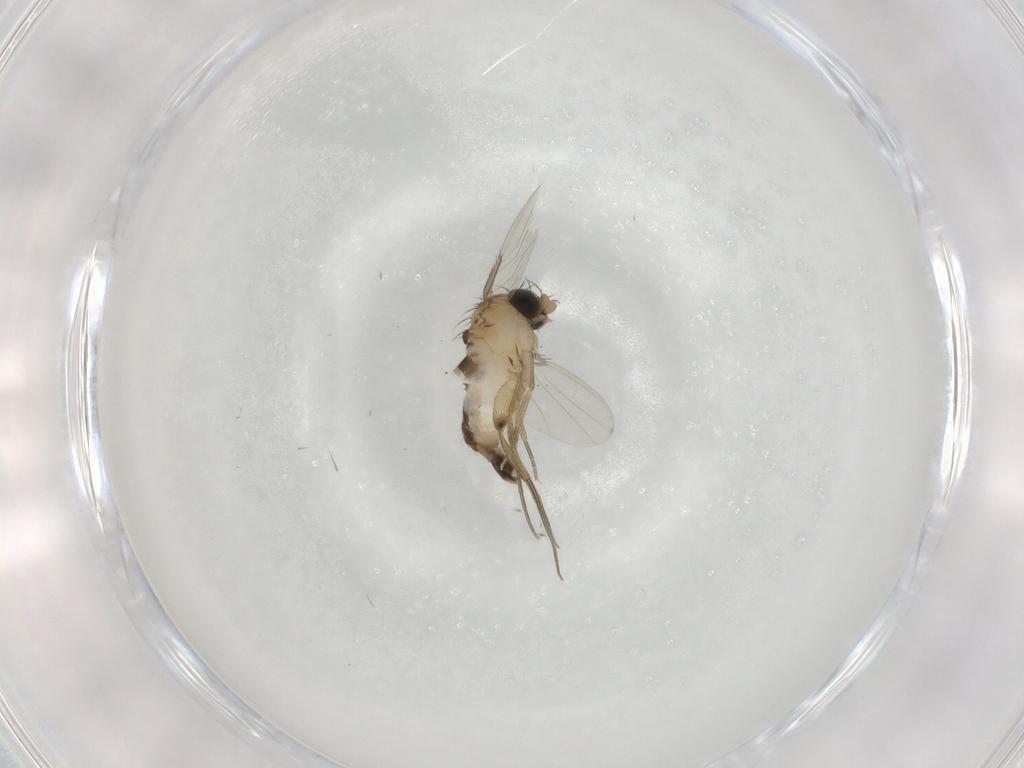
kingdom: Animalia
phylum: Arthropoda
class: Insecta
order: Diptera
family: Phoridae
